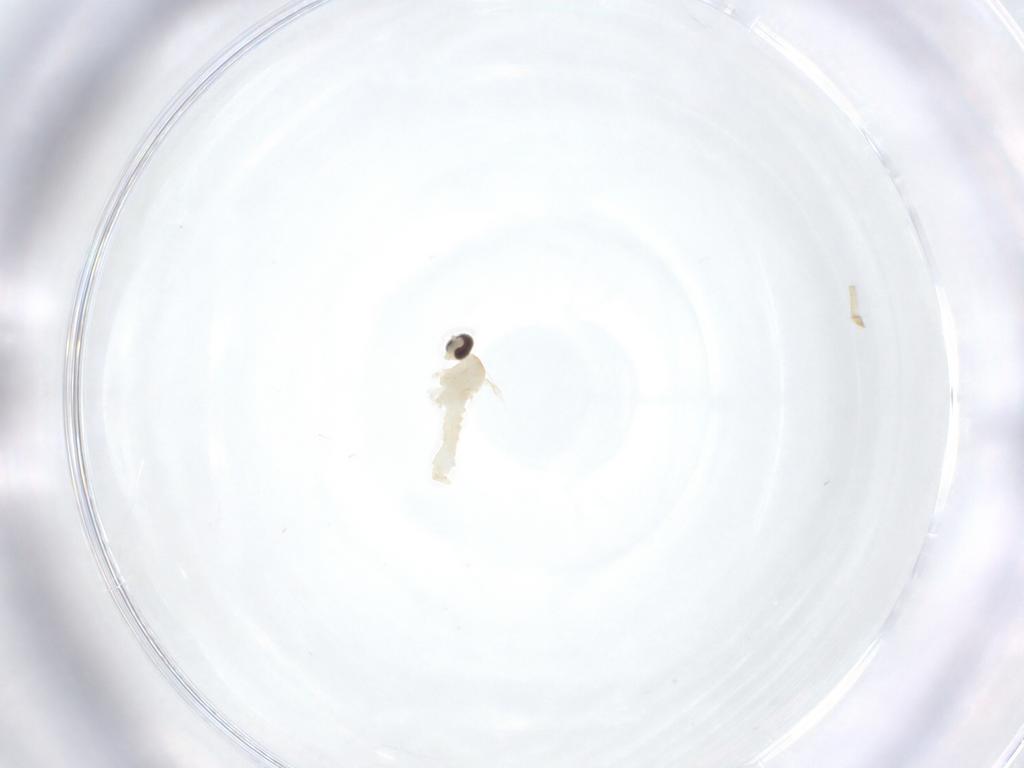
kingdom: Animalia
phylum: Arthropoda
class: Insecta
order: Diptera
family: Cecidomyiidae
